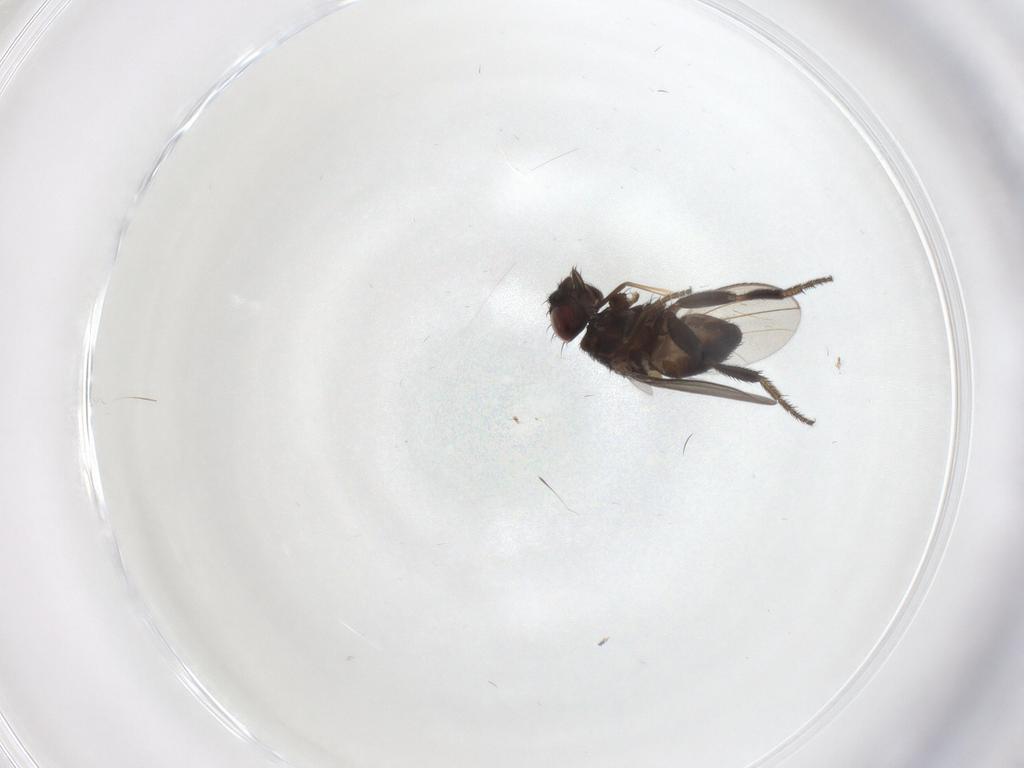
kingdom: Animalia
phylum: Arthropoda
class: Insecta
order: Diptera
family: Milichiidae
